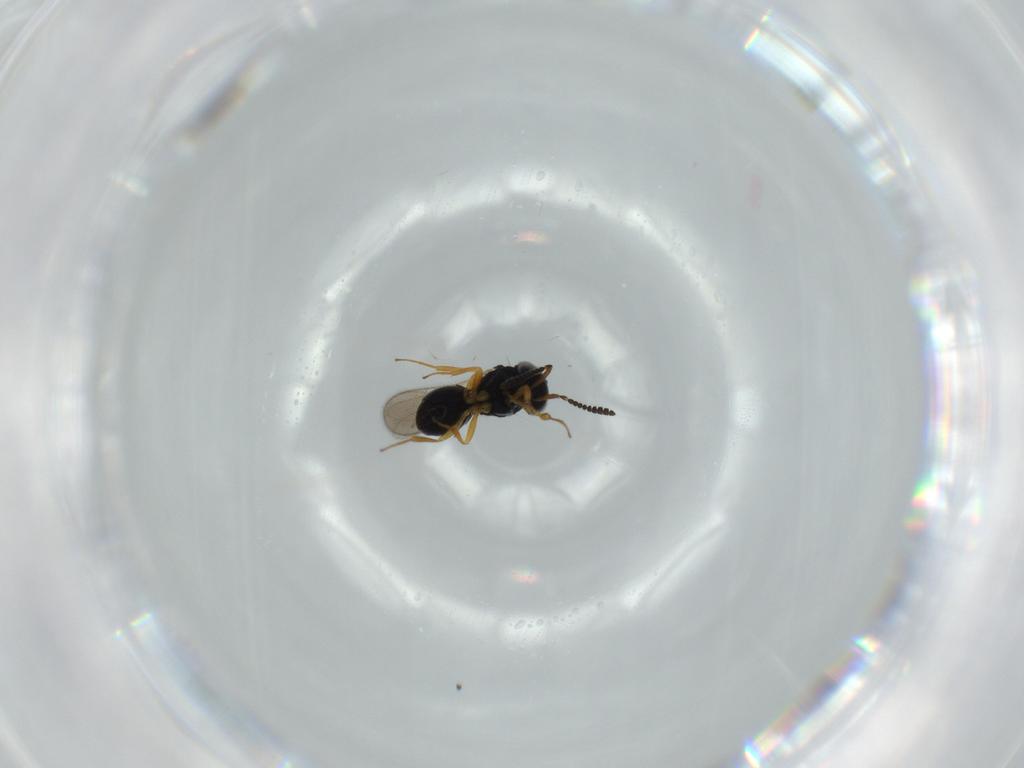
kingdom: Animalia
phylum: Arthropoda
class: Insecta
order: Hymenoptera
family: Scelionidae
